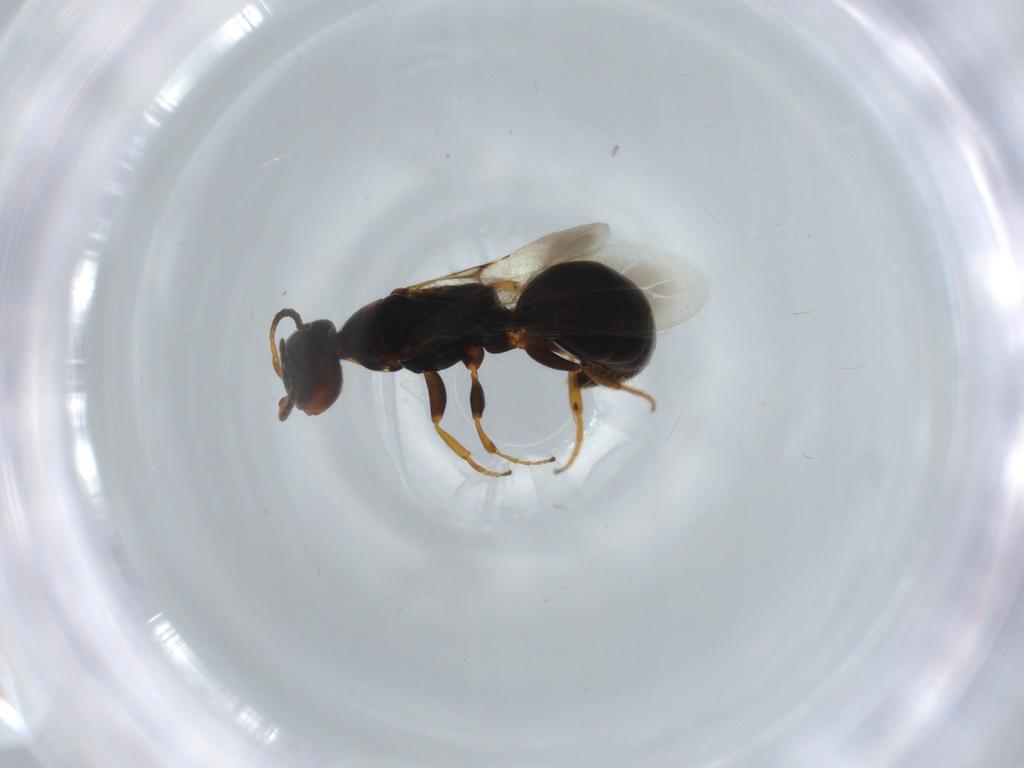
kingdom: Animalia
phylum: Arthropoda
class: Insecta
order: Hymenoptera
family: Bethylidae
